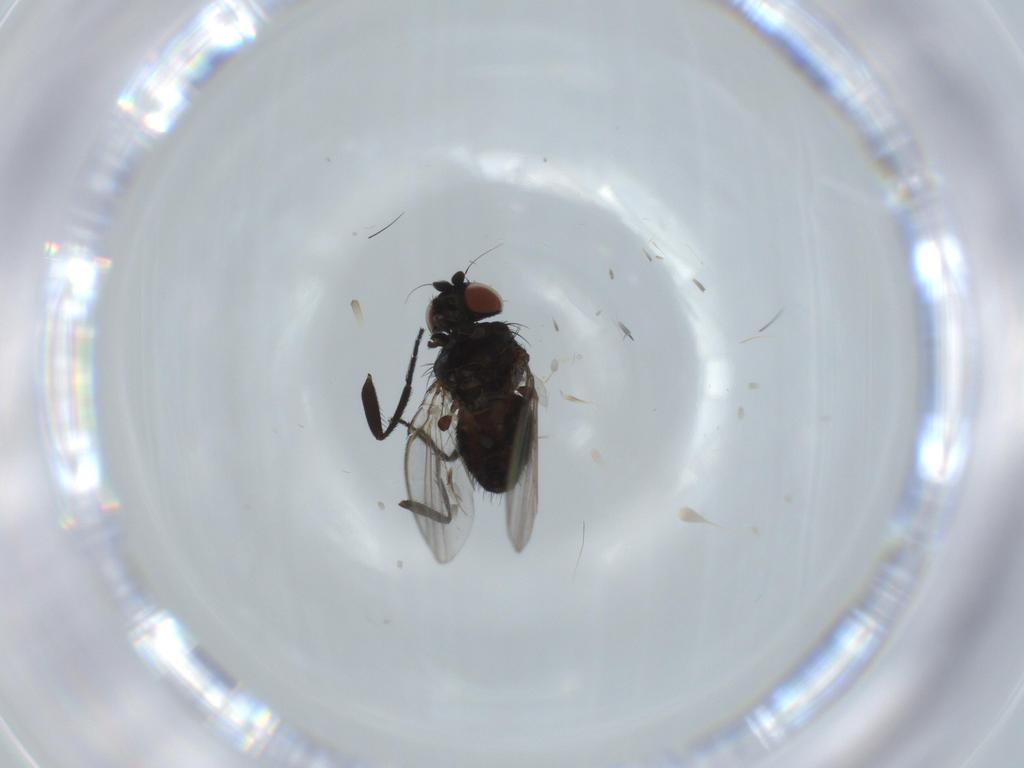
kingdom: Animalia
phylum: Arthropoda
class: Insecta
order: Diptera
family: Milichiidae
